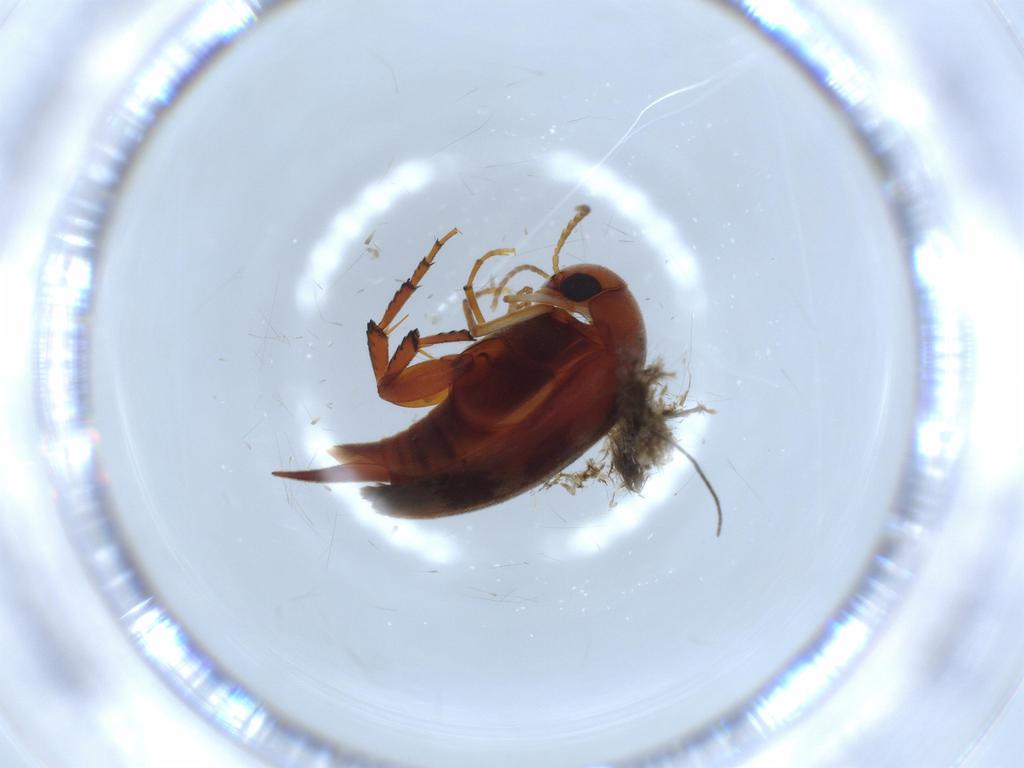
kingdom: Animalia
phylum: Arthropoda
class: Insecta
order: Coleoptera
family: Mordellidae
